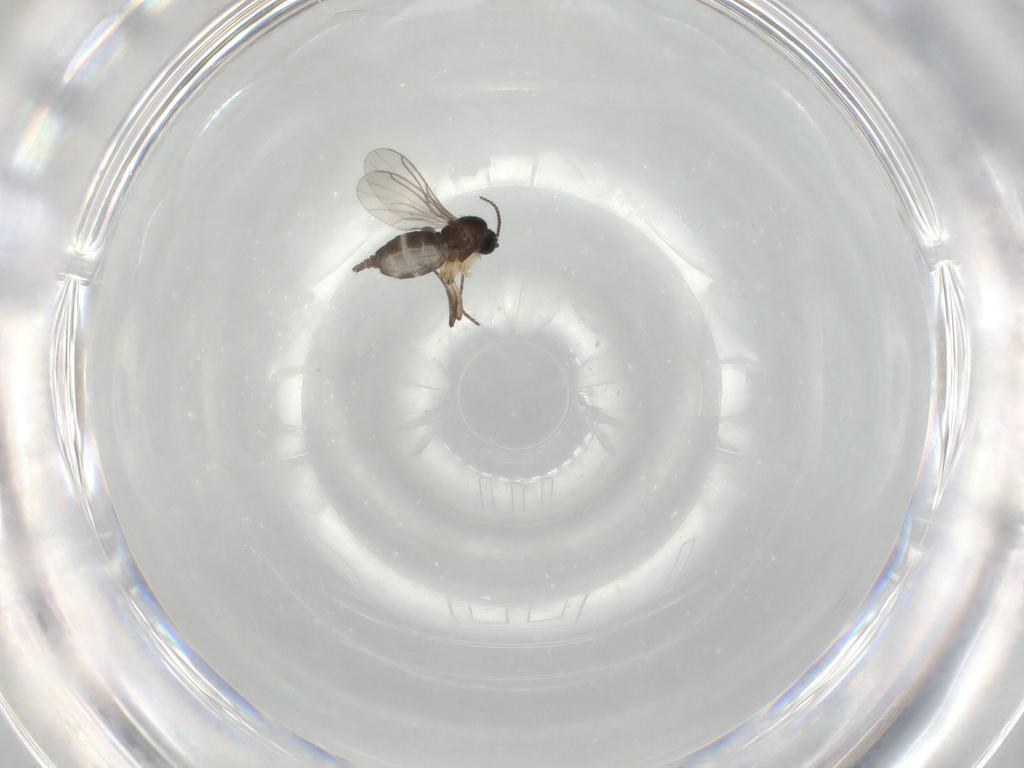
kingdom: Animalia
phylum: Arthropoda
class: Insecta
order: Diptera
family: Sciaridae
